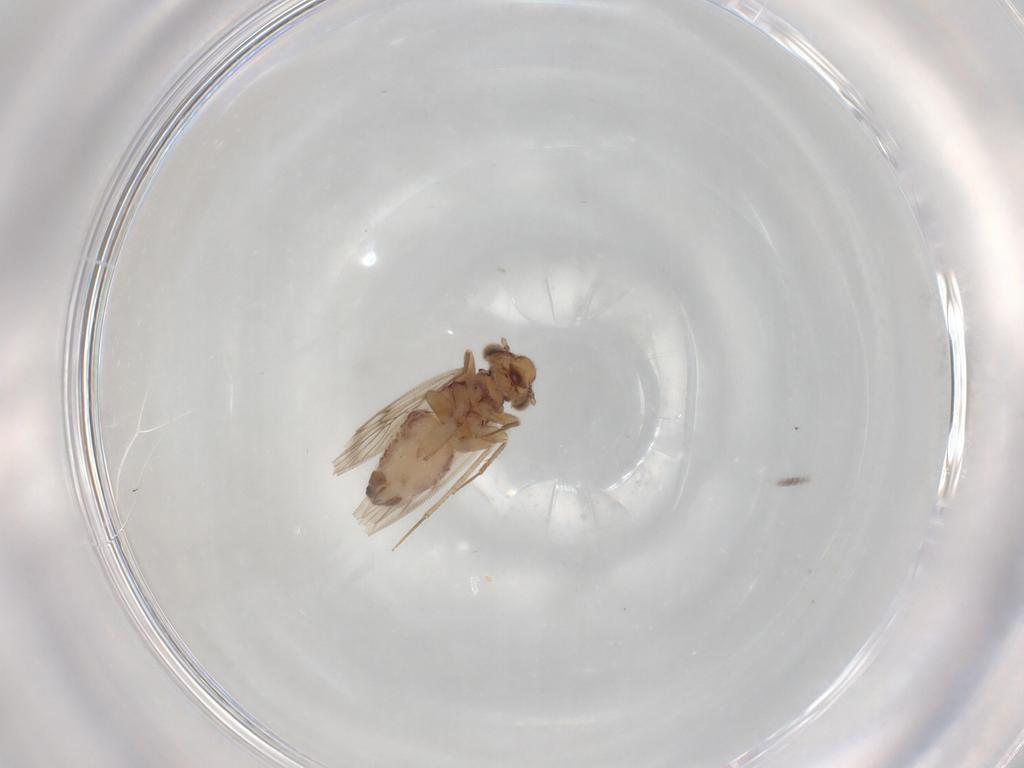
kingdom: Animalia
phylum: Arthropoda
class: Insecta
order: Psocodea
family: Lepidopsocidae
